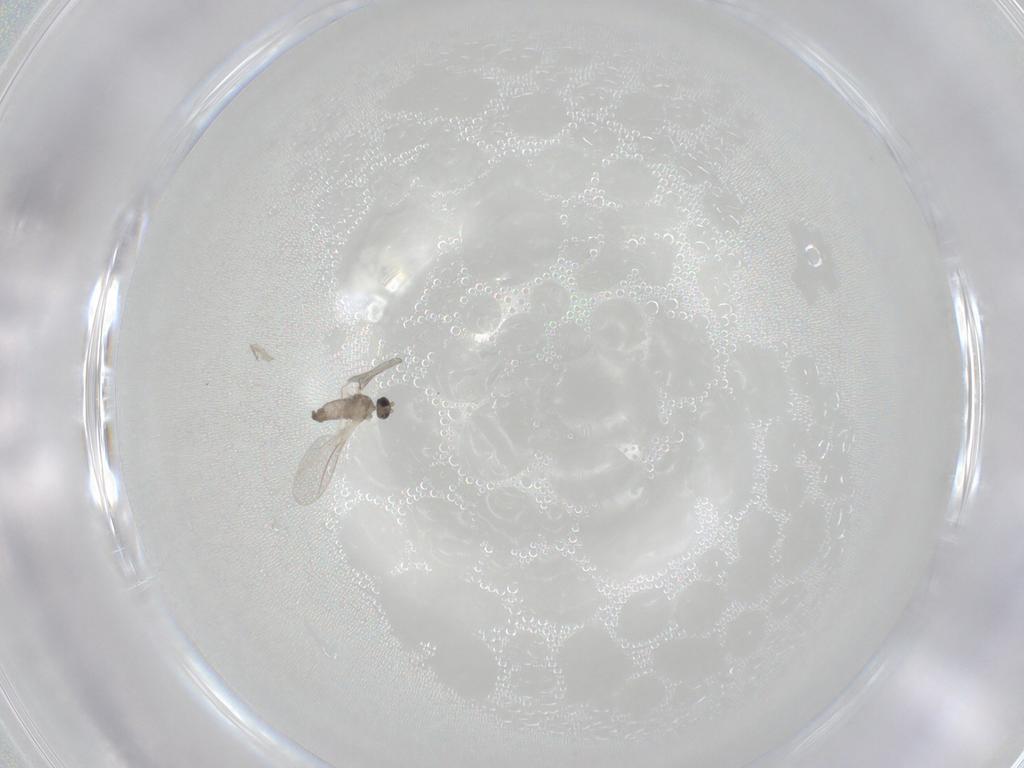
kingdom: Animalia
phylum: Arthropoda
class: Insecta
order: Diptera
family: Cecidomyiidae
